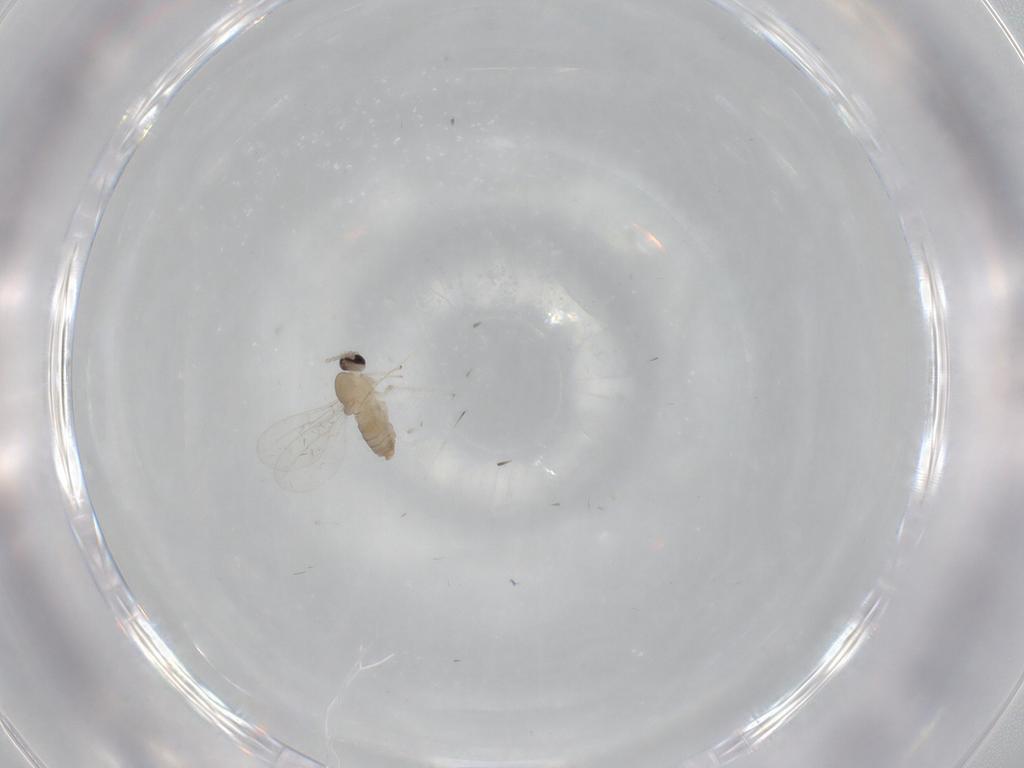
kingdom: Animalia
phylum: Arthropoda
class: Insecta
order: Diptera
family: Cecidomyiidae
